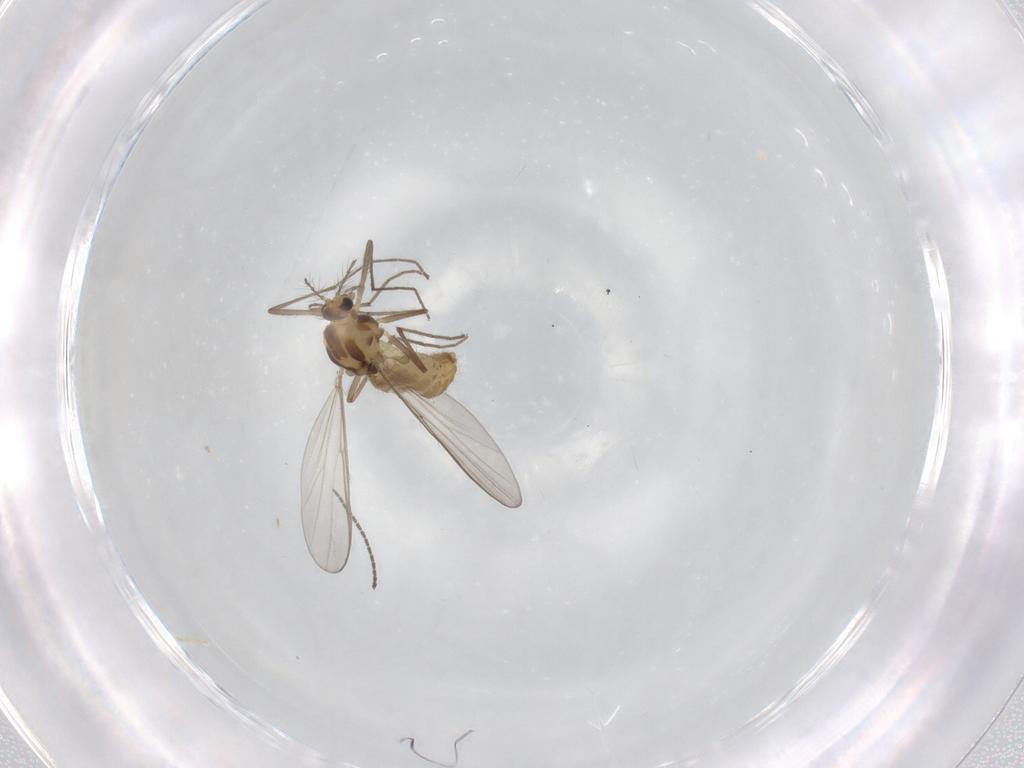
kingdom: Animalia
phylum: Arthropoda
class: Insecta
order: Diptera
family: Chironomidae
